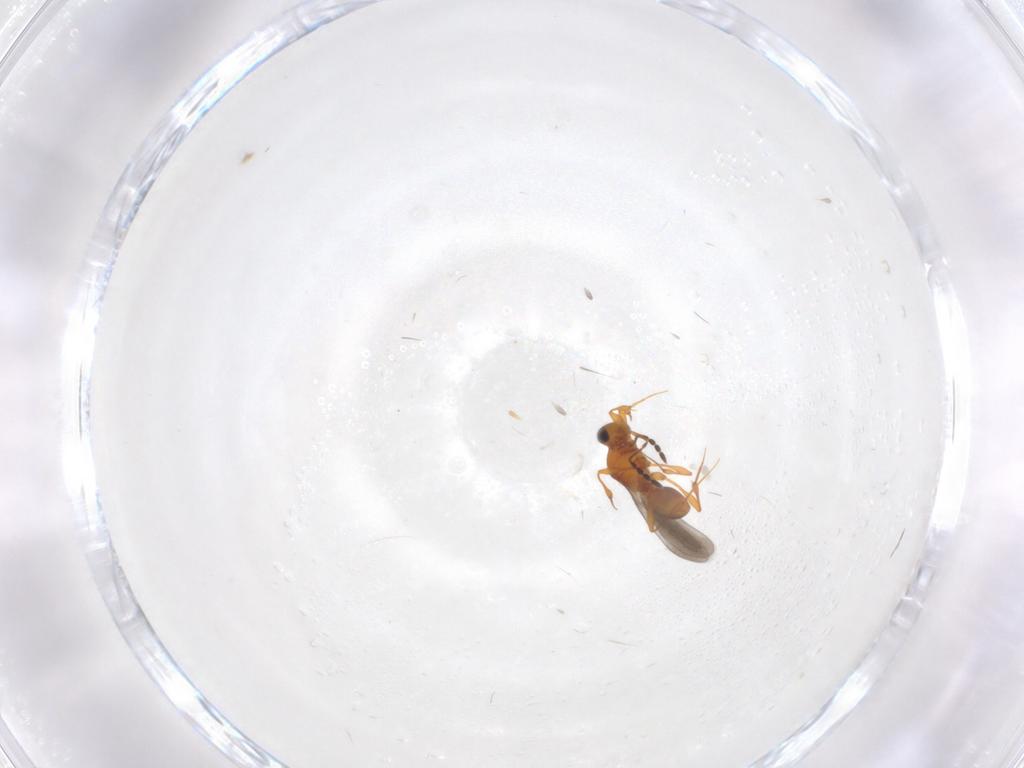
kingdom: Animalia
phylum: Arthropoda
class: Insecta
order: Hymenoptera
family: Platygastridae
